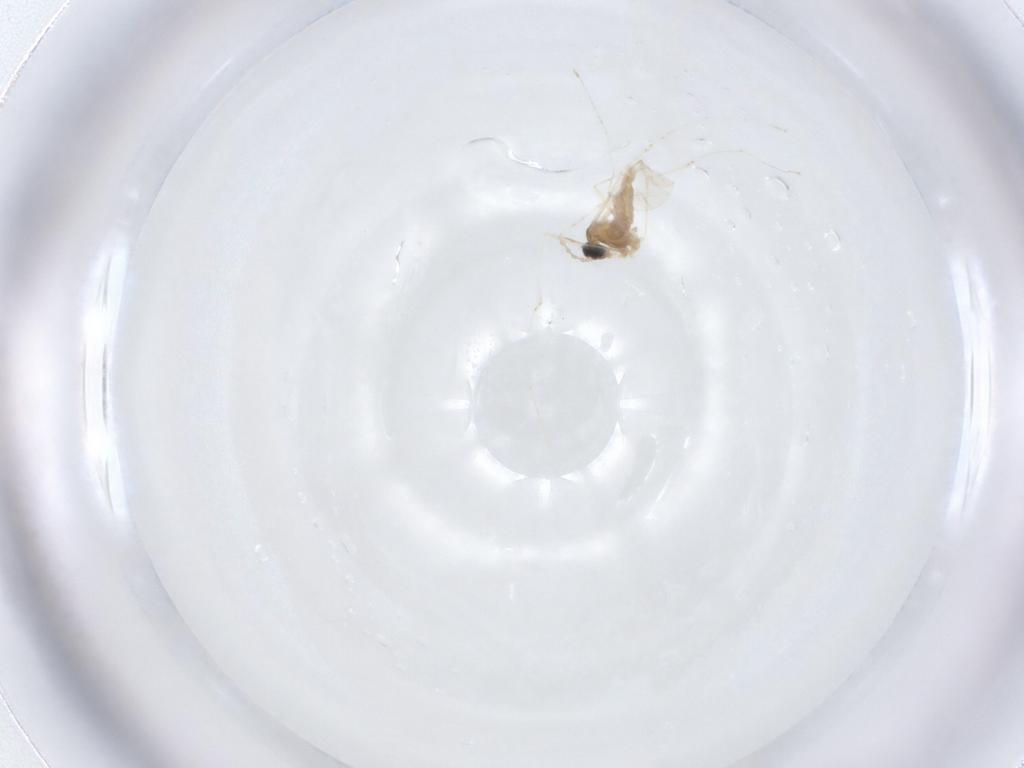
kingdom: Animalia
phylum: Arthropoda
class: Insecta
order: Diptera
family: Cecidomyiidae
